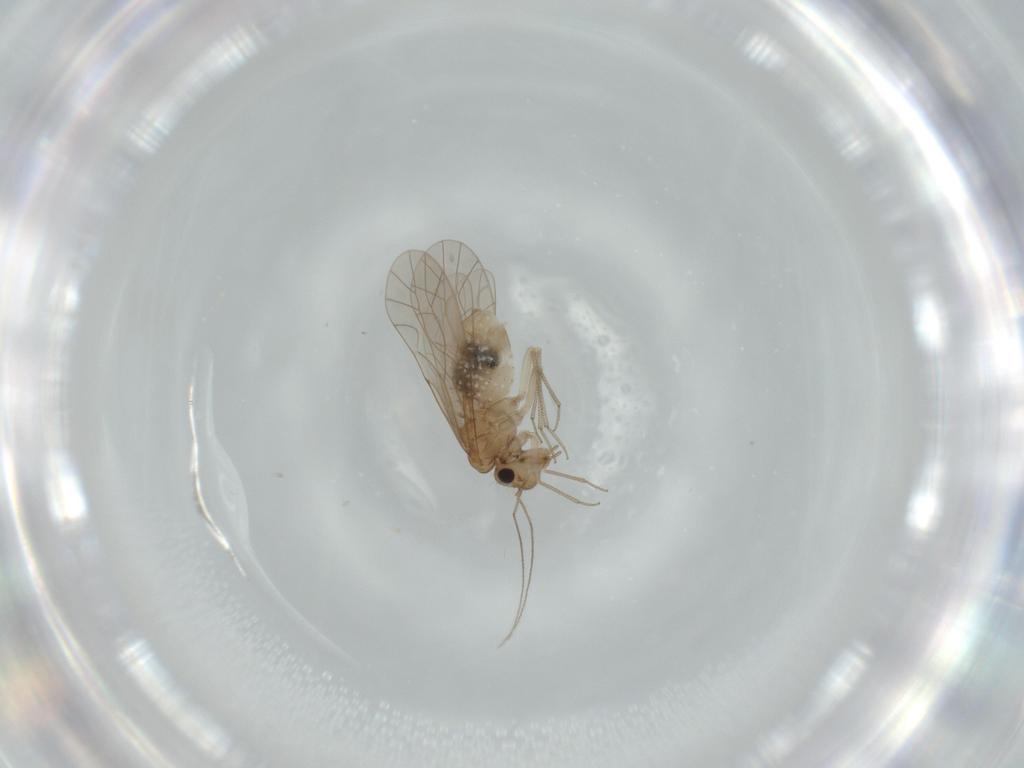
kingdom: Animalia
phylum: Arthropoda
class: Insecta
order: Psocodea
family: Lachesillidae
